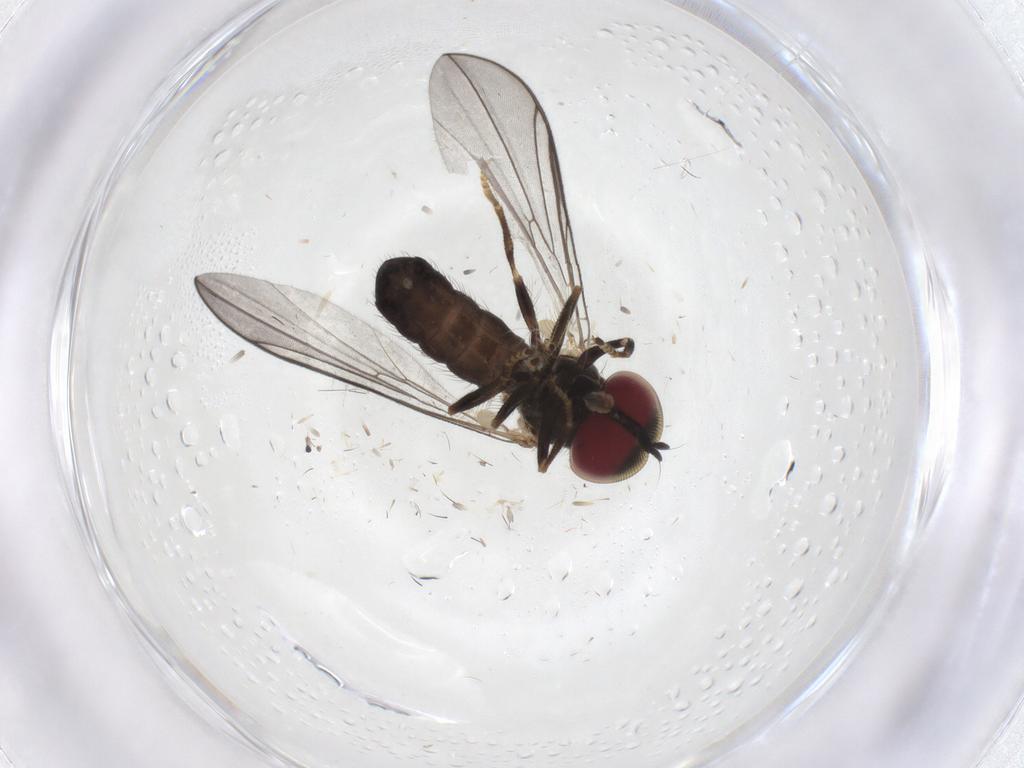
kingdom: Animalia
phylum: Arthropoda
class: Insecta
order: Diptera
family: Pipunculidae
